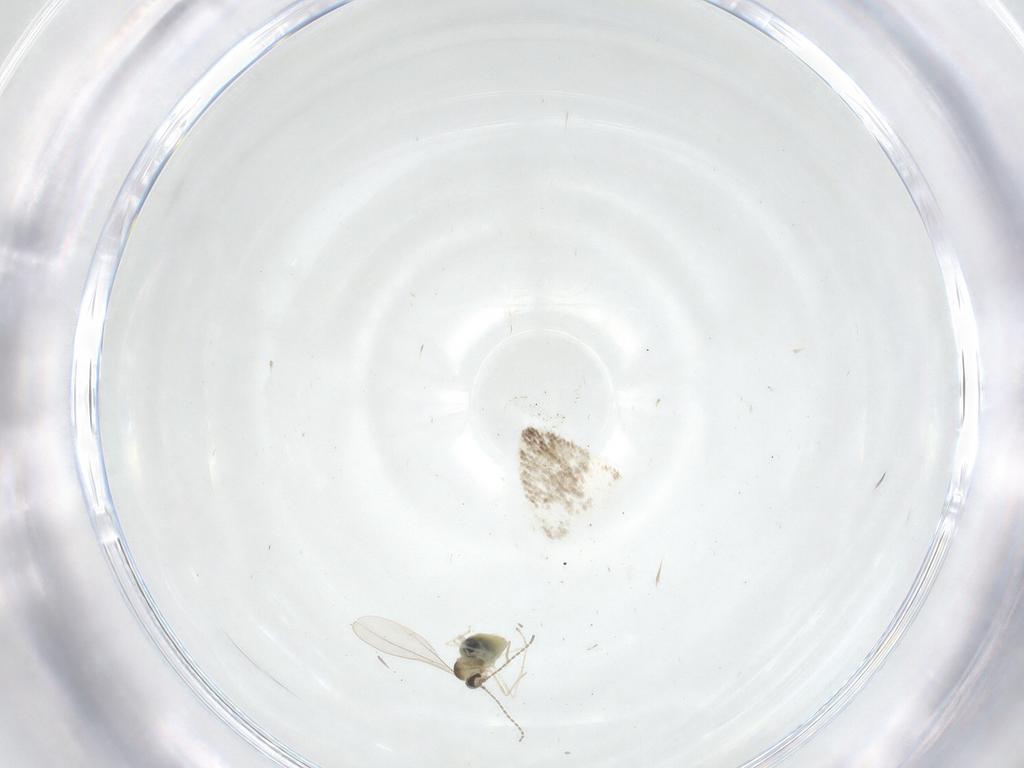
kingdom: Animalia
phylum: Arthropoda
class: Insecta
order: Diptera
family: Cecidomyiidae
